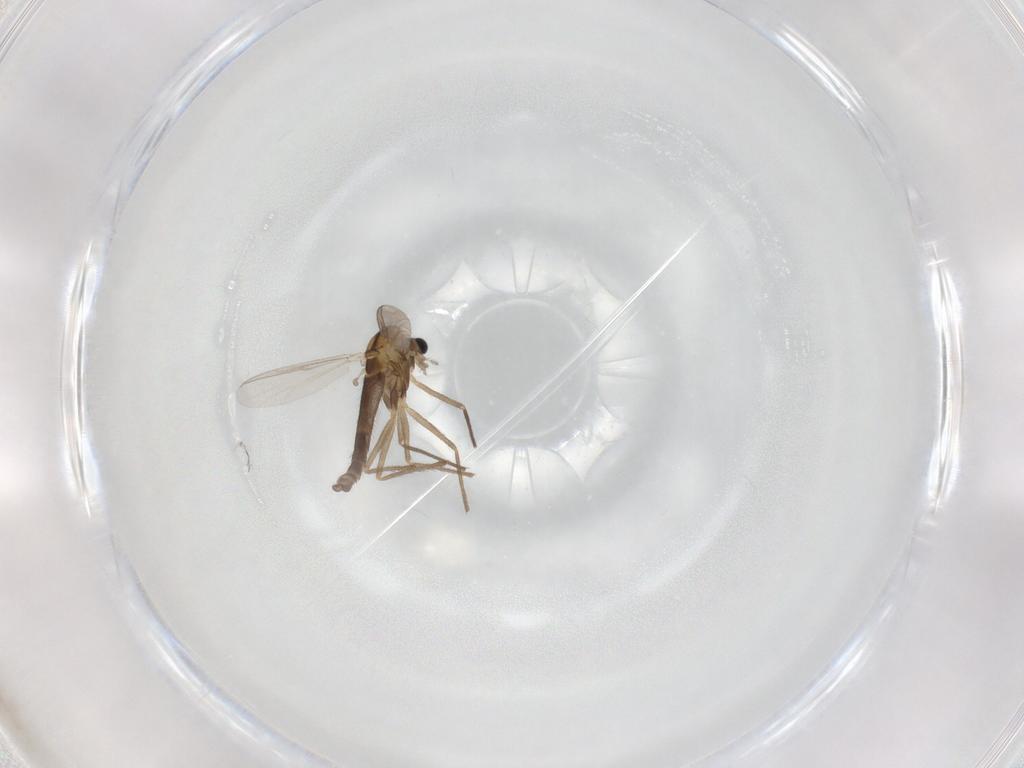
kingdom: Animalia
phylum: Arthropoda
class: Insecta
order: Diptera
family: Chironomidae
